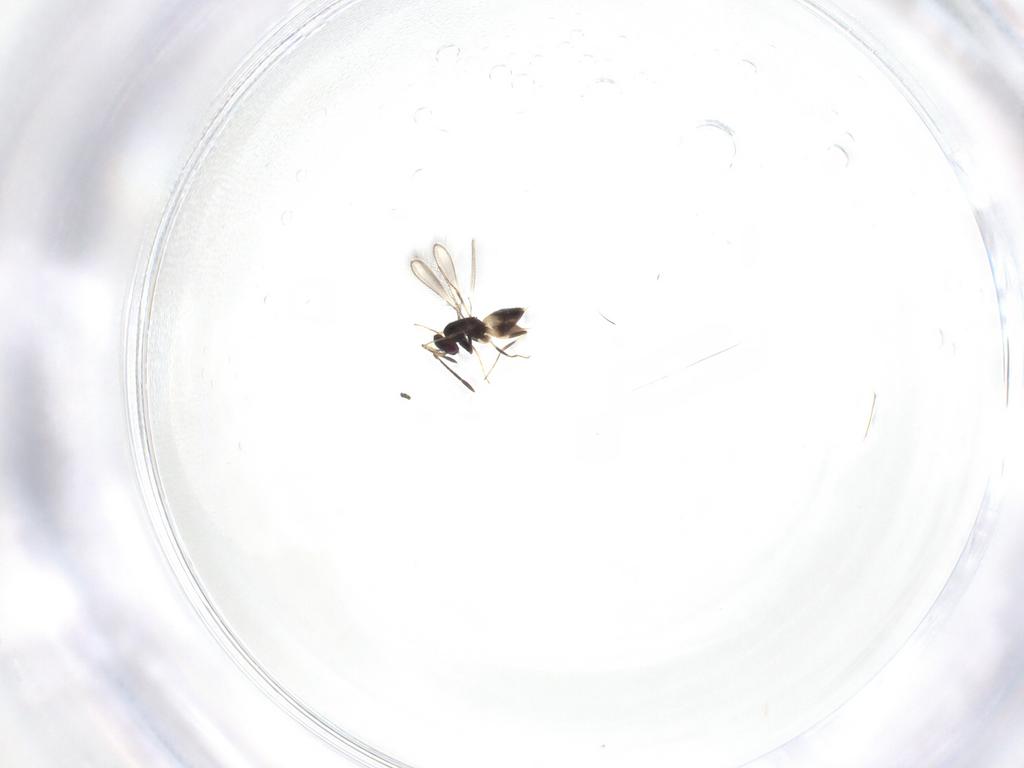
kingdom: Animalia
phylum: Arthropoda
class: Insecta
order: Hymenoptera
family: Mymaridae
